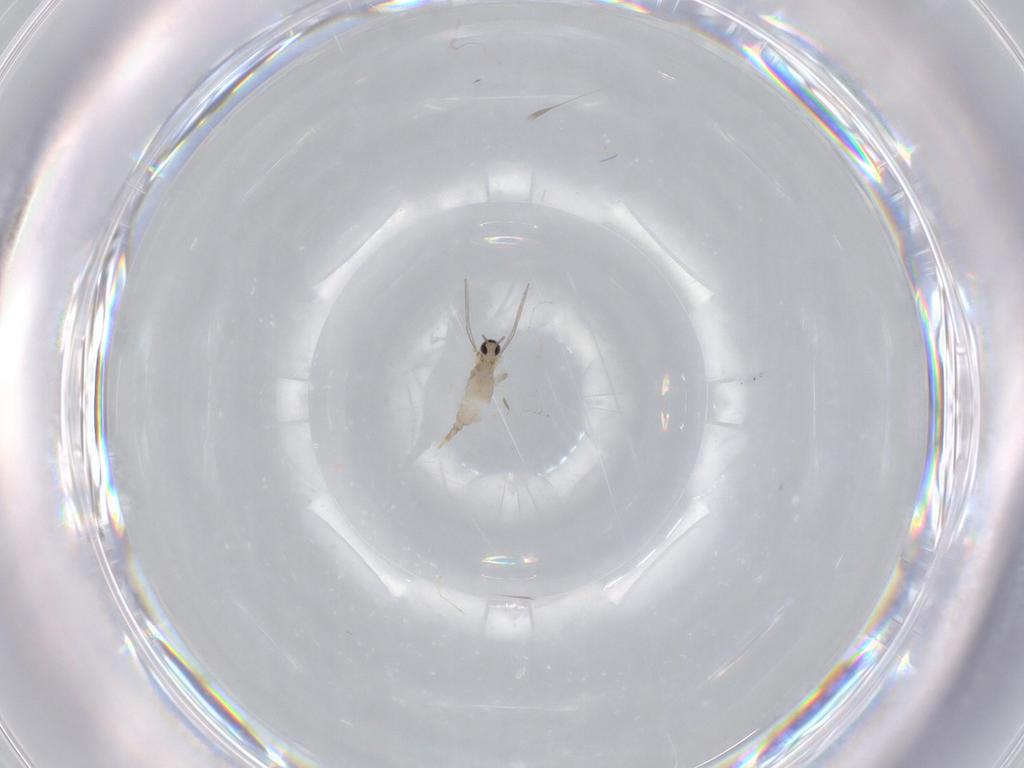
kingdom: Animalia
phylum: Arthropoda
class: Insecta
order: Diptera
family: Cecidomyiidae
